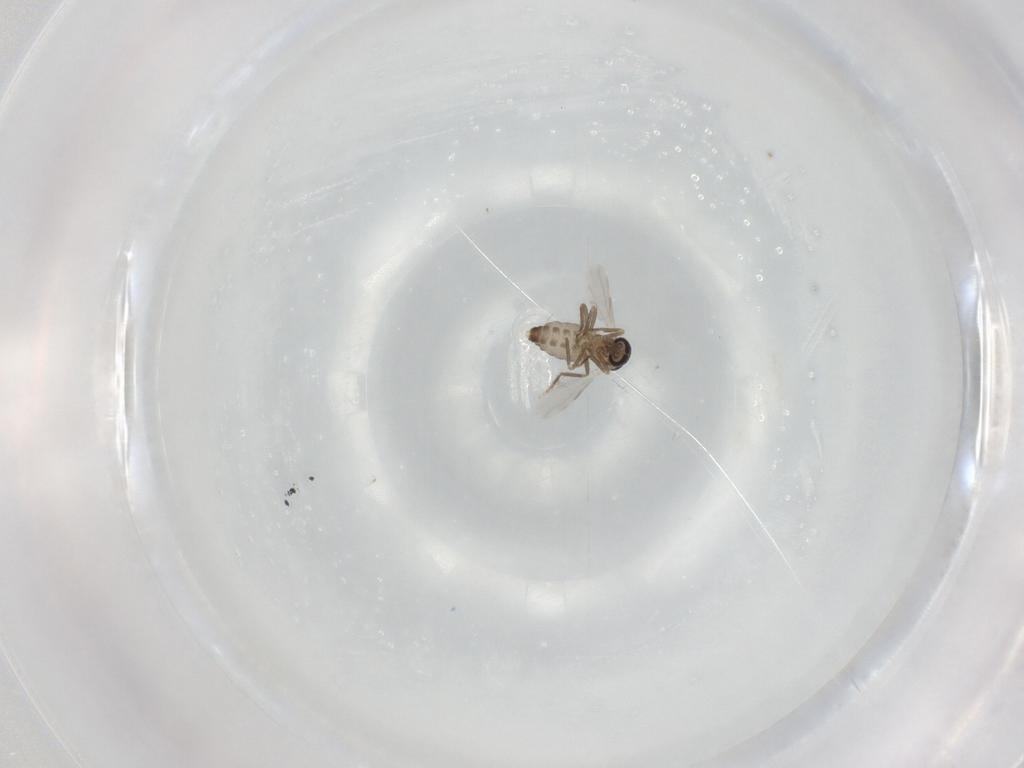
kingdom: Animalia
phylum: Arthropoda
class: Insecta
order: Diptera
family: Ceratopogonidae
